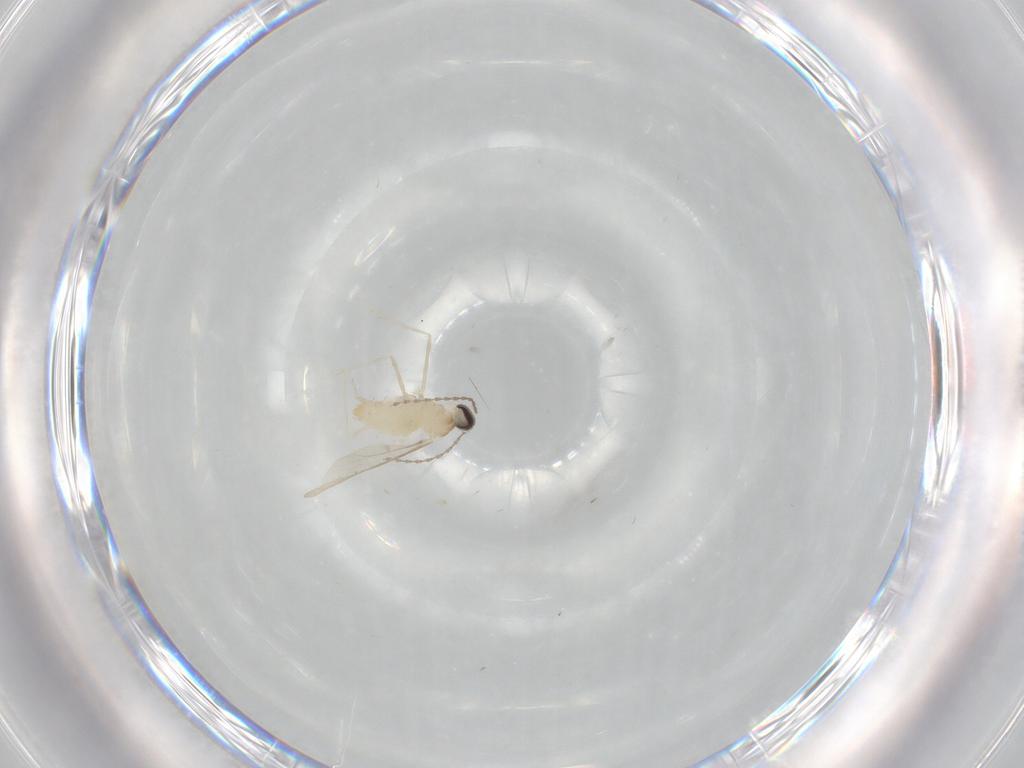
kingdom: Animalia
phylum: Arthropoda
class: Insecta
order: Diptera
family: Cecidomyiidae
